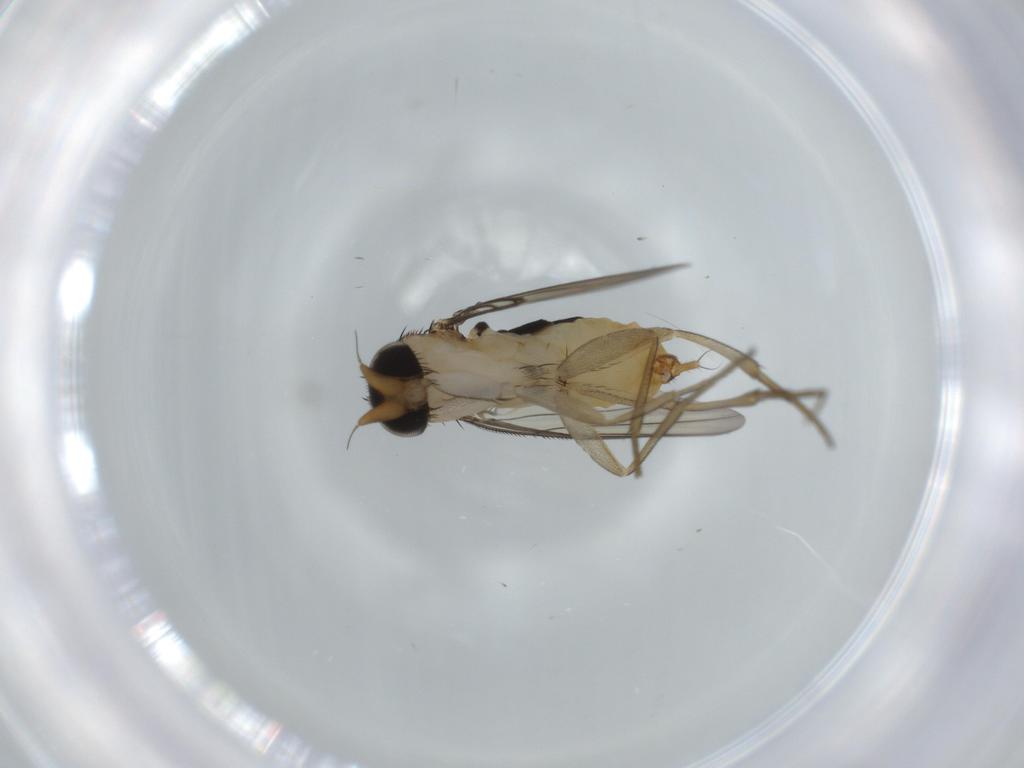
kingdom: Animalia
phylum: Arthropoda
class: Insecta
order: Diptera
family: Phoridae
